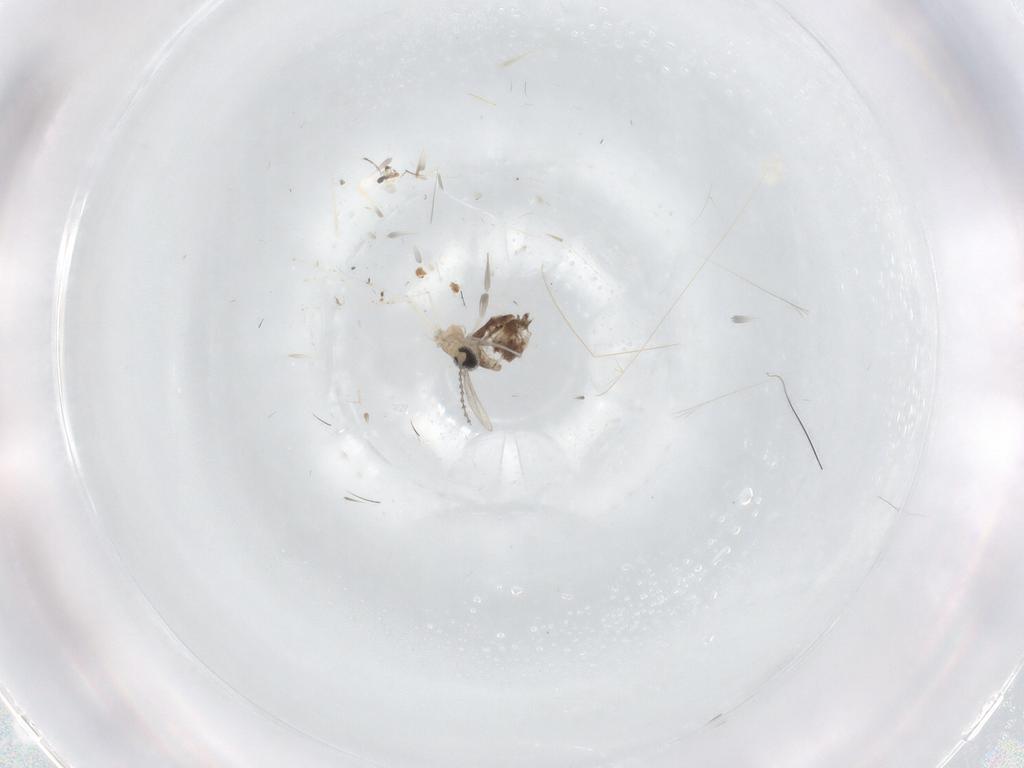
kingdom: Animalia
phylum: Arthropoda
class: Insecta
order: Diptera
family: Cecidomyiidae
